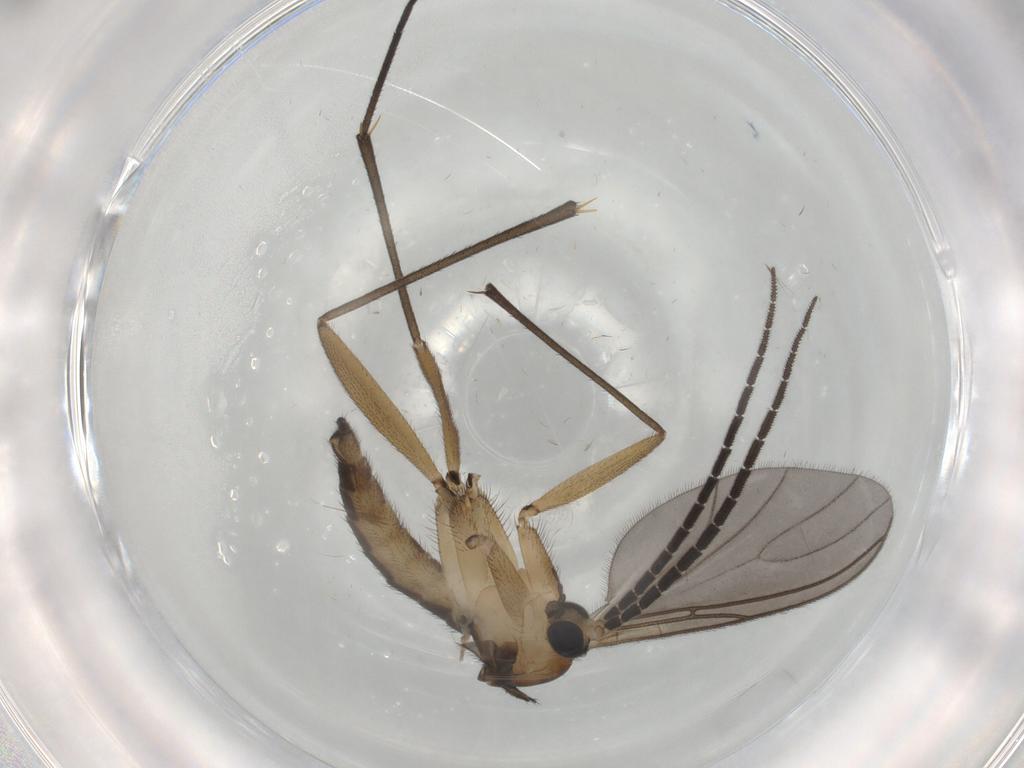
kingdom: Animalia
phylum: Arthropoda
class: Insecta
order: Diptera
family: Sciaridae
